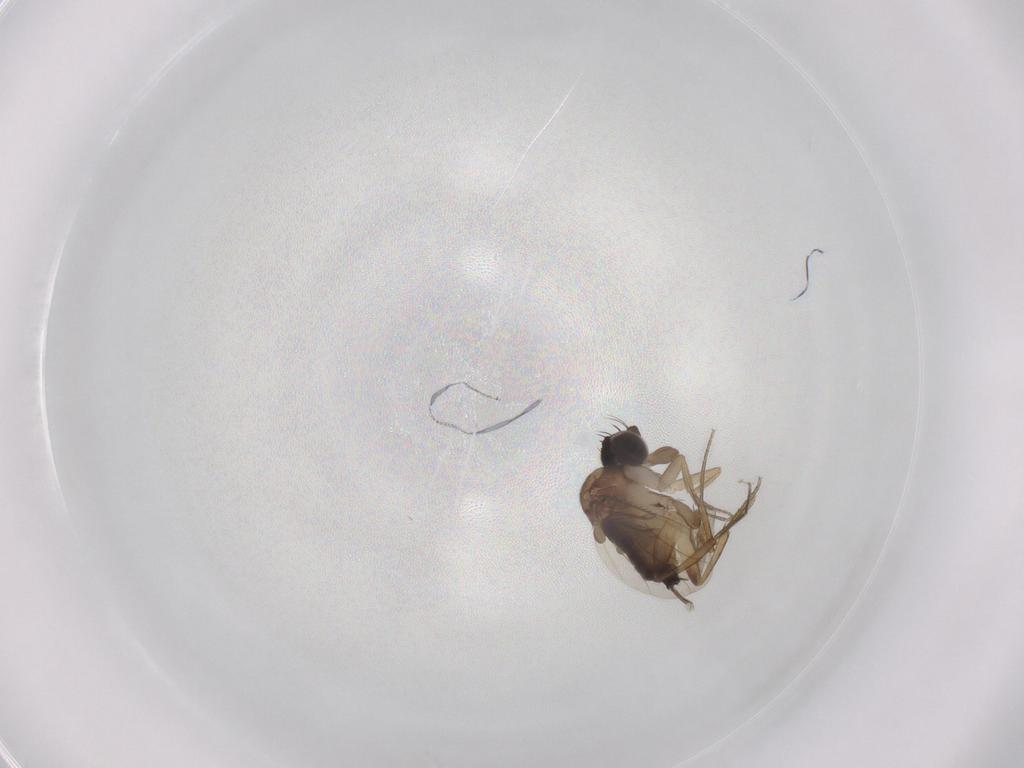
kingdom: Animalia
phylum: Arthropoda
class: Insecta
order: Diptera
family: Phoridae
